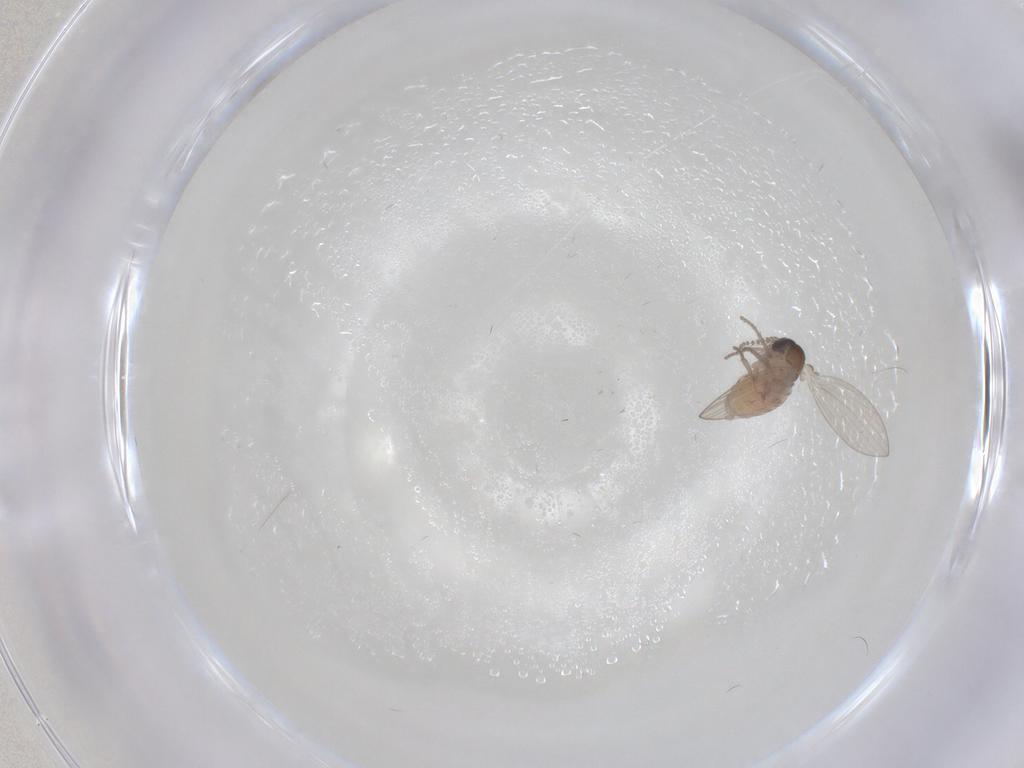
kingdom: Animalia
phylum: Arthropoda
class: Insecta
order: Diptera
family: Psychodidae
